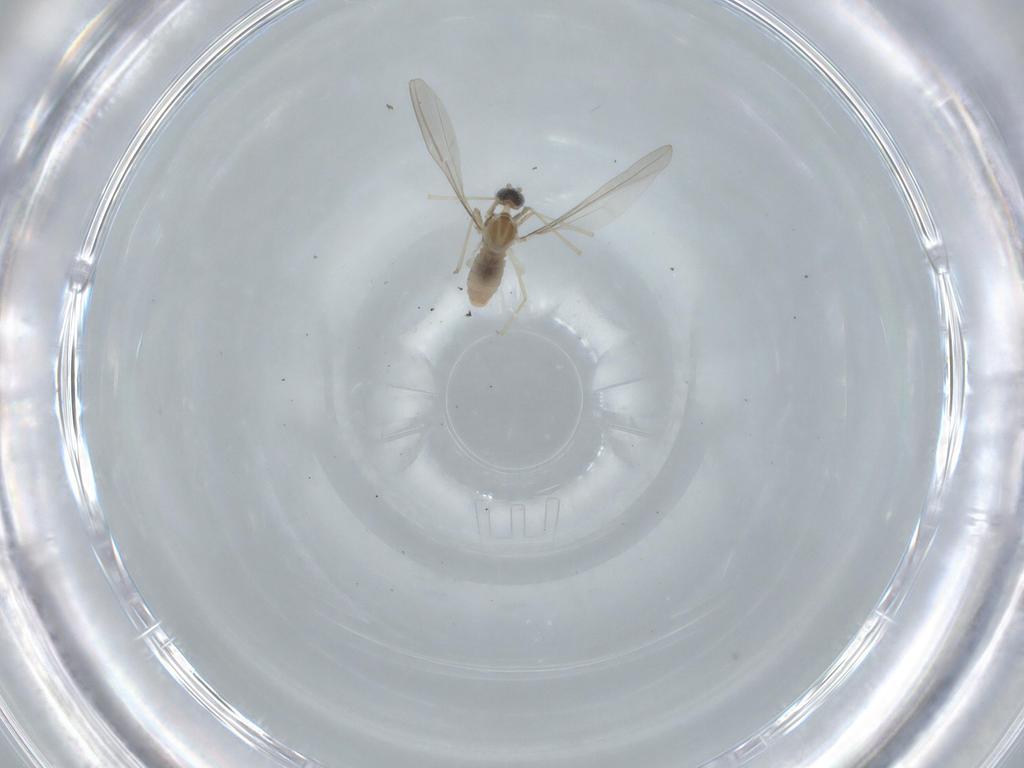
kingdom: Animalia
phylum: Arthropoda
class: Insecta
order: Diptera
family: Cecidomyiidae
